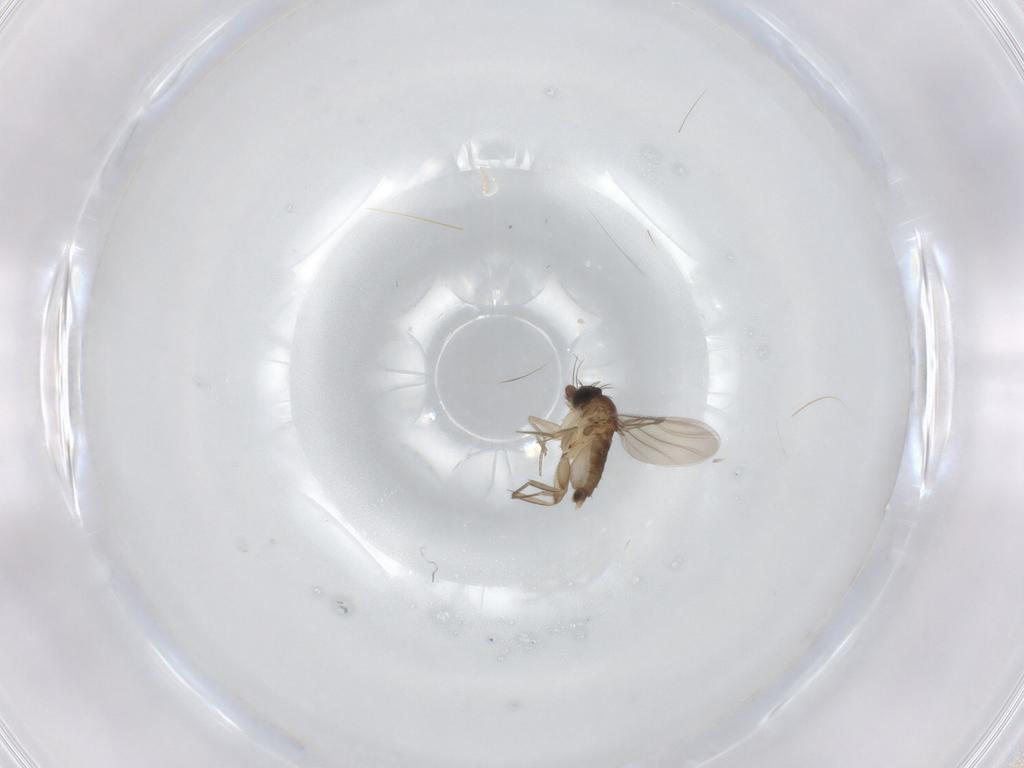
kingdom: Animalia
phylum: Arthropoda
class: Insecta
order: Diptera
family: Phoridae
